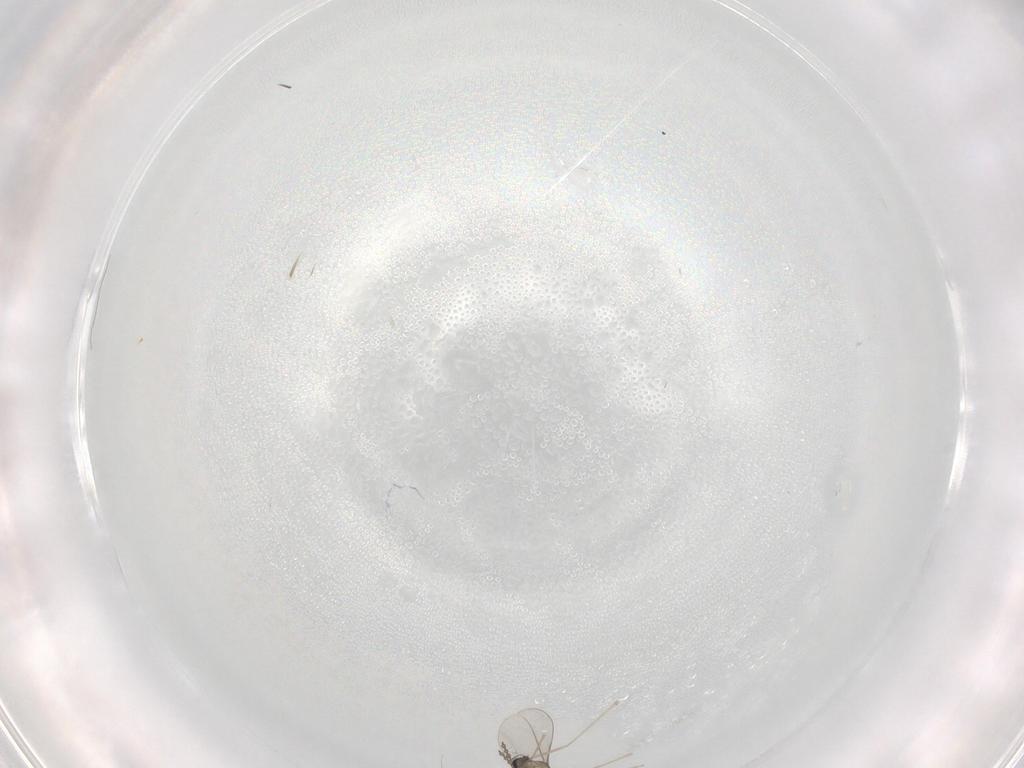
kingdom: Animalia
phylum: Arthropoda
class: Insecta
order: Diptera
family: Cecidomyiidae
